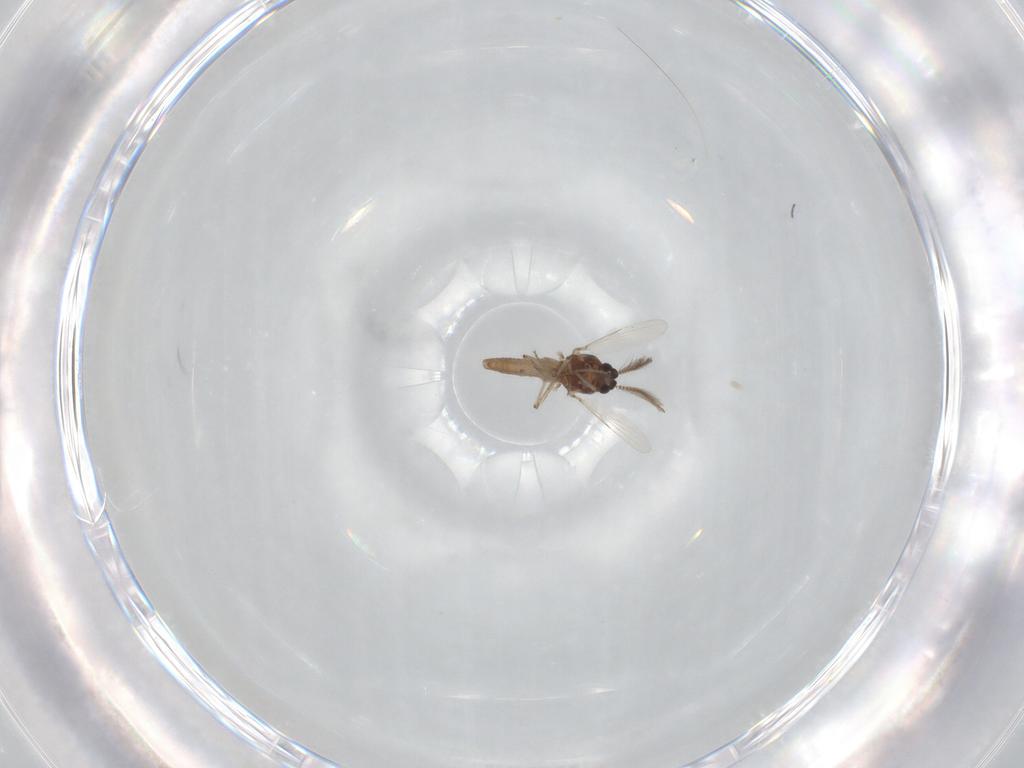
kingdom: Animalia
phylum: Arthropoda
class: Insecta
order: Diptera
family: Ceratopogonidae
